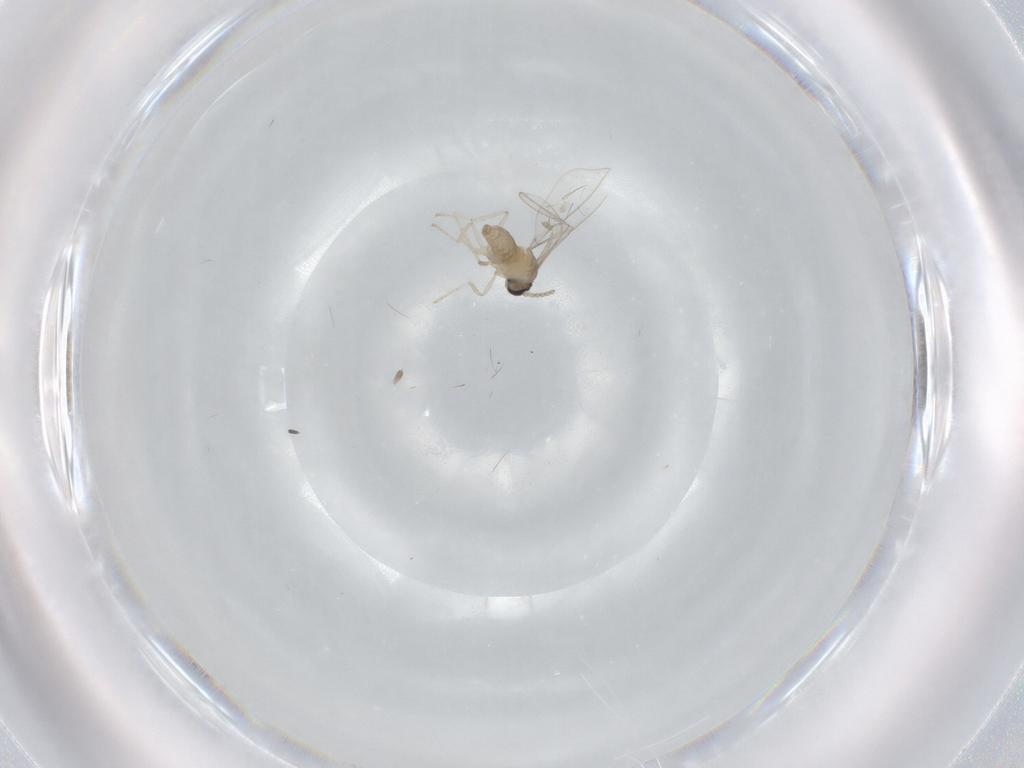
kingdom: Animalia
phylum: Arthropoda
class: Insecta
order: Diptera
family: Cecidomyiidae
